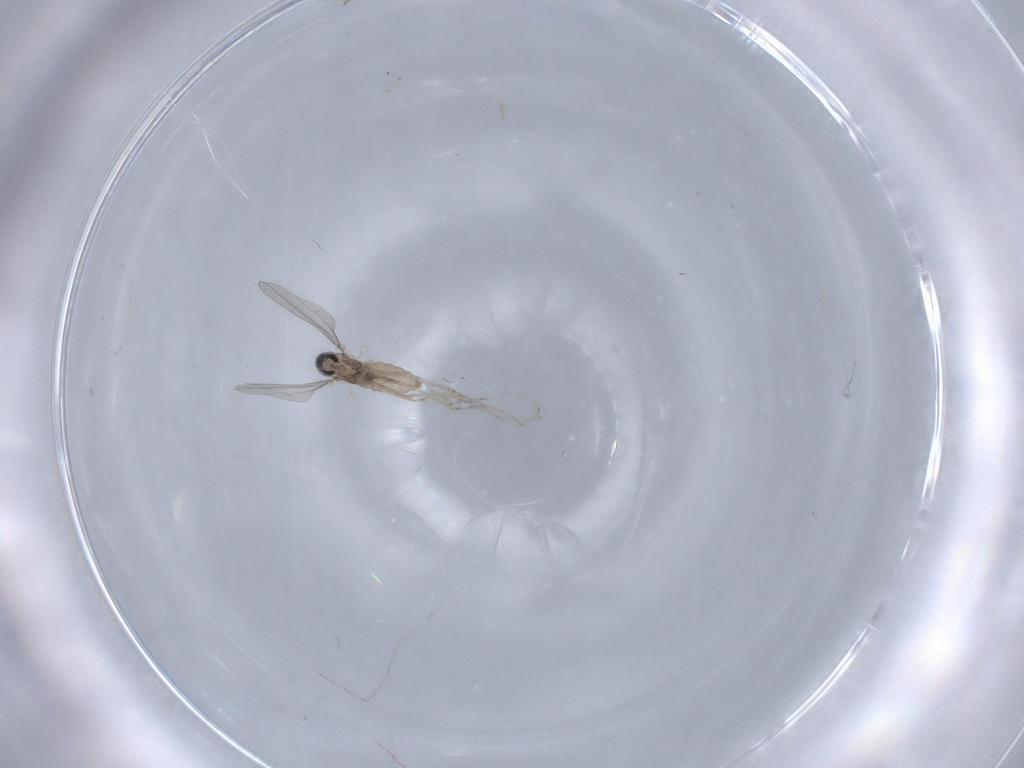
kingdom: Animalia
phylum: Arthropoda
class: Insecta
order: Diptera
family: Cecidomyiidae
